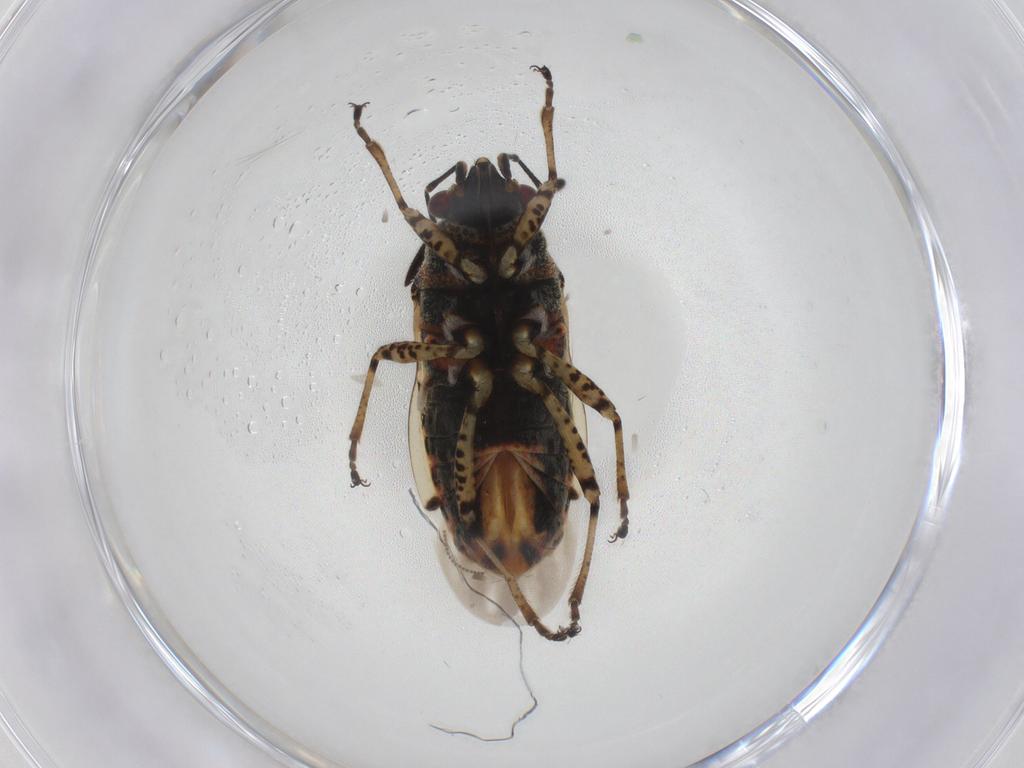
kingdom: Animalia
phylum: Arthropoda
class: Insecta
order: Hemiptera
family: Lygaeidae
